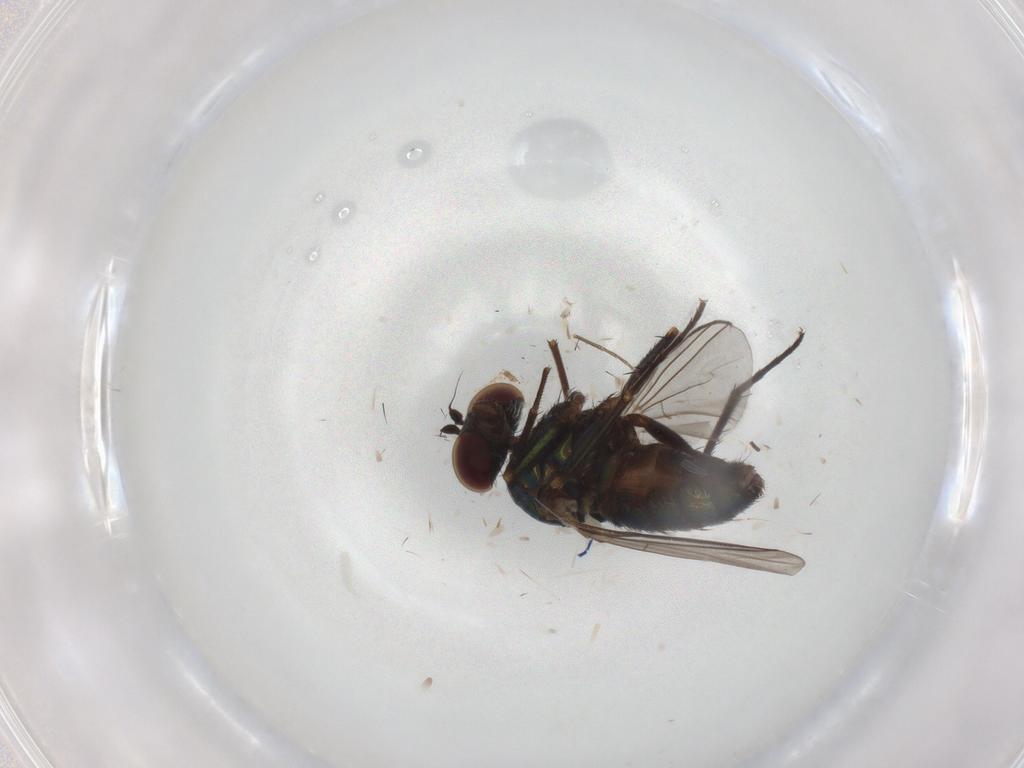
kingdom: Animalia
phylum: Arthropoda
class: Insecta
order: Diptera
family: Dolichopodidae
